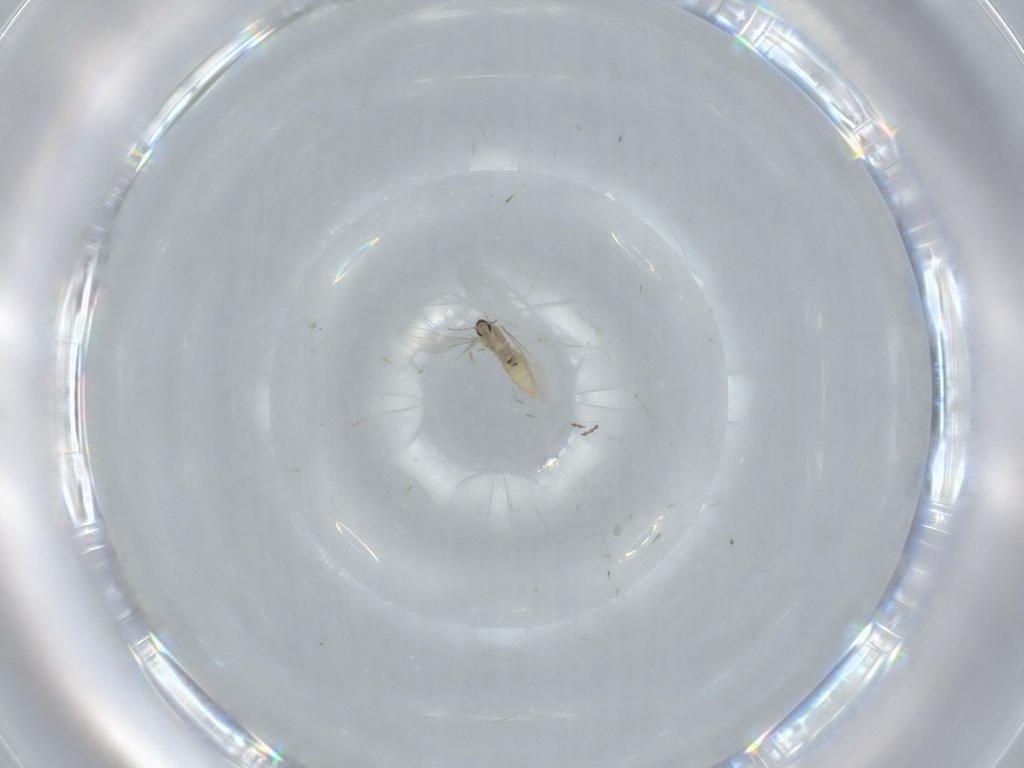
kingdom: Animalia
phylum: Arthropoda
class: Insecta
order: Diptera
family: Cecidomyiidae
